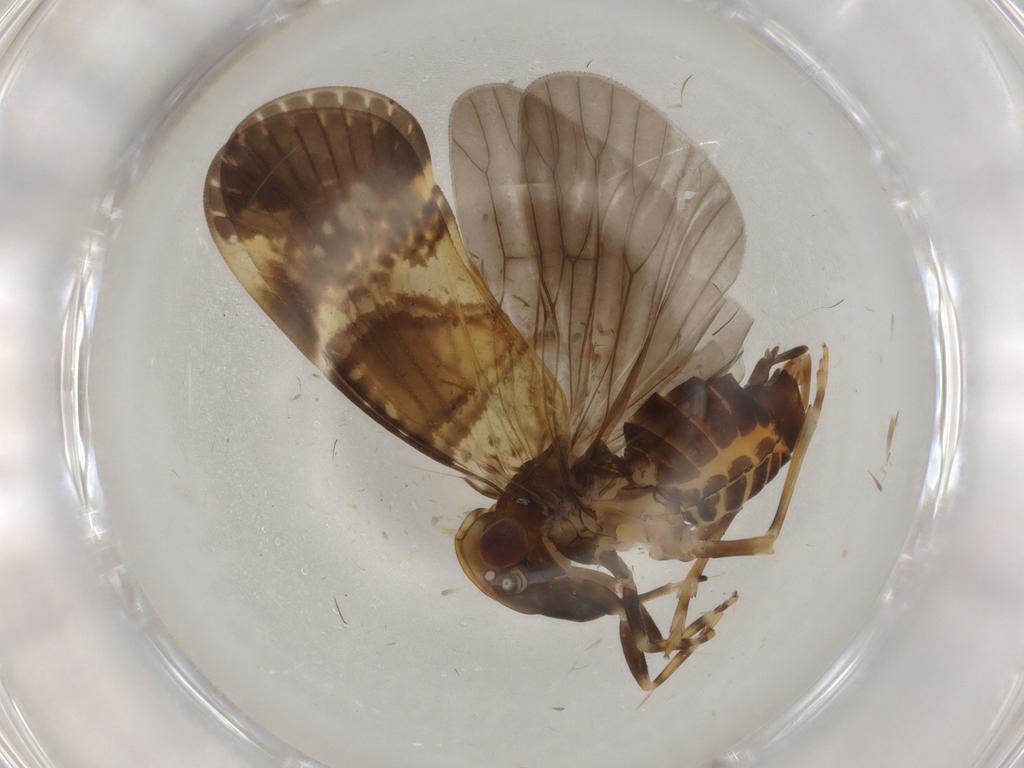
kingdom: Animalia
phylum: Arthropoda
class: Insecta
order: Hemiptera
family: Cixiidae
